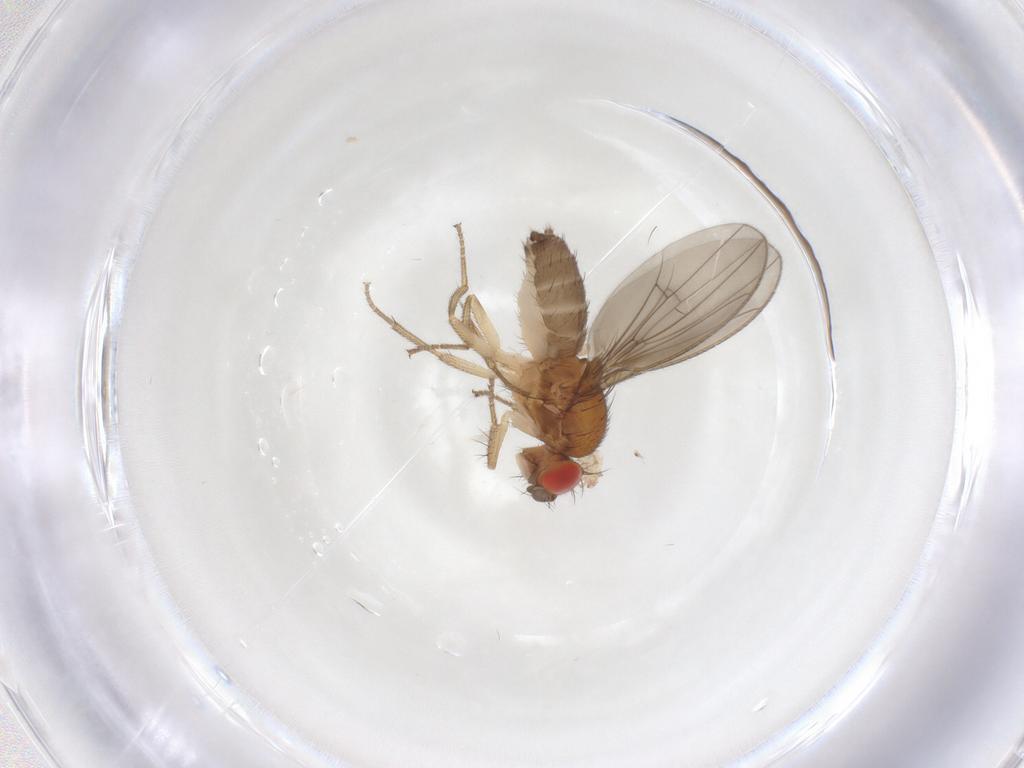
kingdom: Animalia
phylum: Arthropoda
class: Insecta
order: Diptera
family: Drosophilidae
